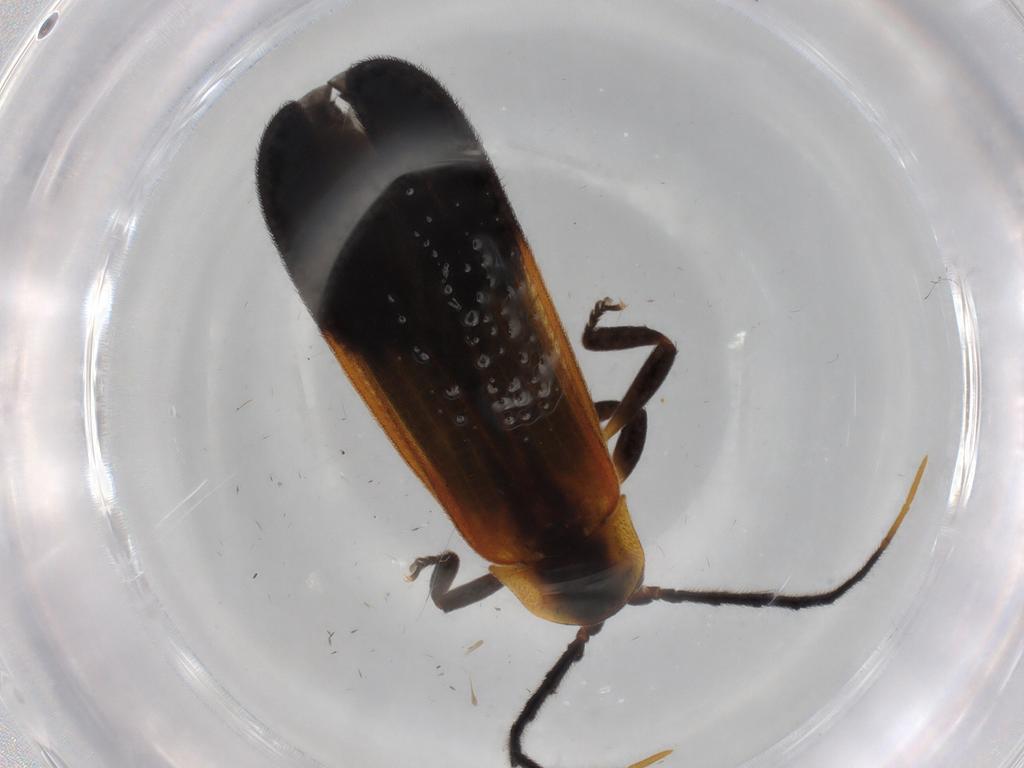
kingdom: Animalia
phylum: Arthropoda
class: Insecta
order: Coleoptera
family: Lycidae
